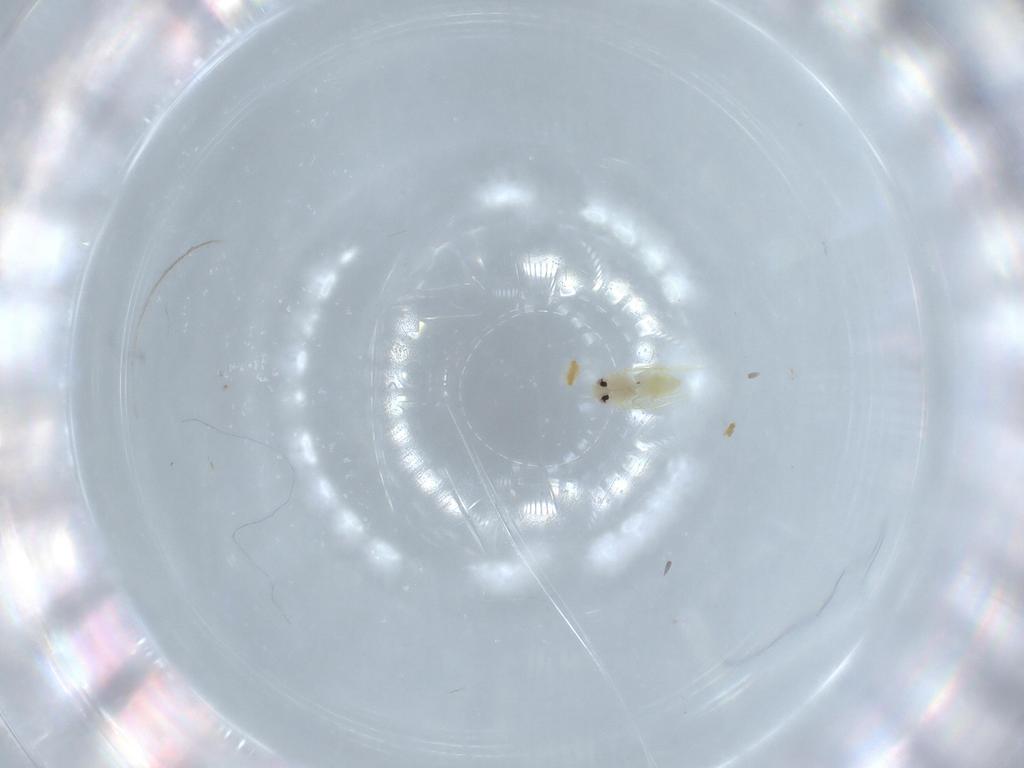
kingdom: Animalia
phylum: Arthropoda
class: Insecta
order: Hemiptera
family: Aleyrodidae
